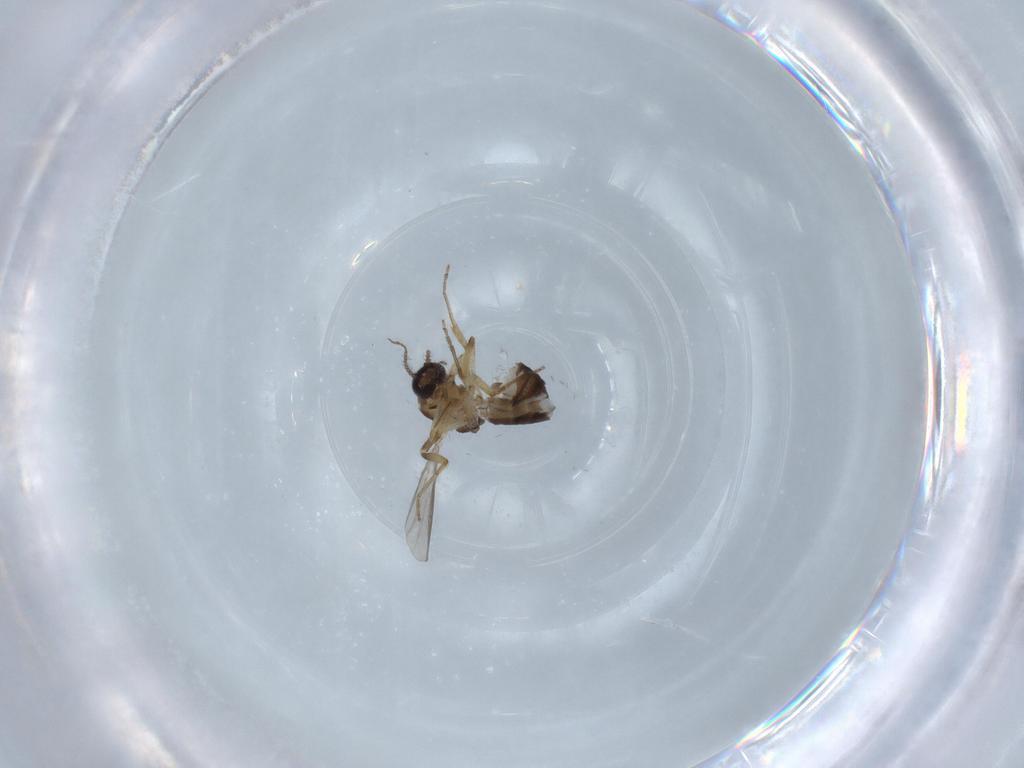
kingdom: Animalia
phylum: Arthropoda
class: Insecta
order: Diptera
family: Ceratopogonidae
